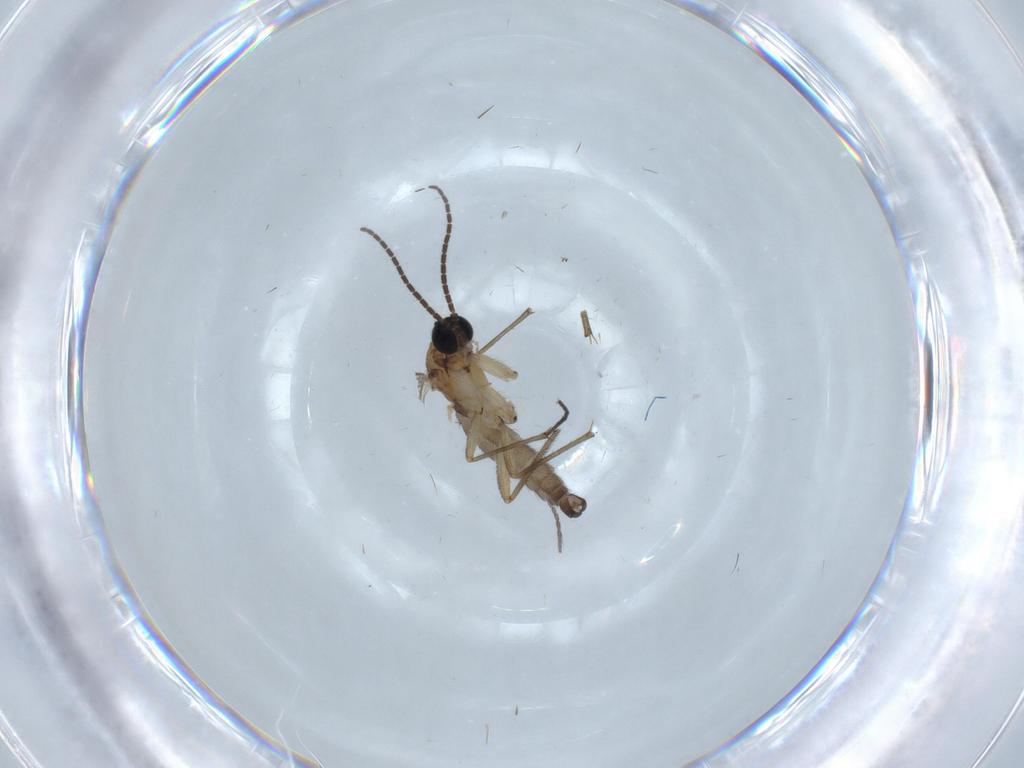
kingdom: Animalia
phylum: Arthropoda
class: Insecta
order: Diptera
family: Sciaridae
